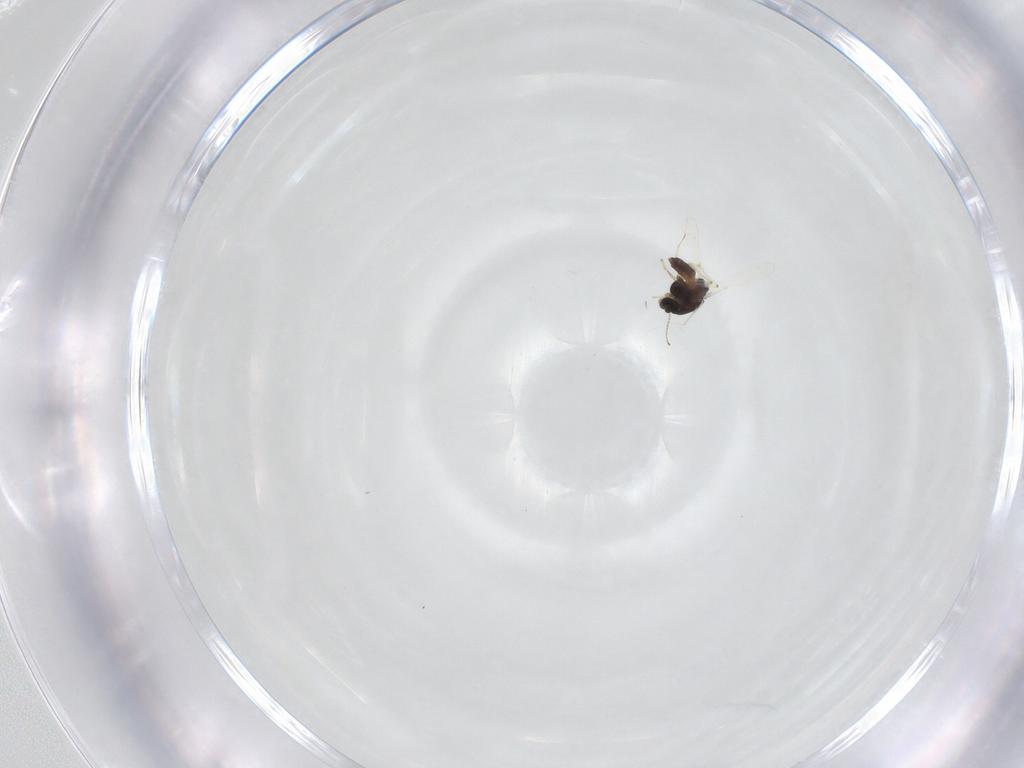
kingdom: Animalia
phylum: Arthropoda
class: Insecta
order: Diptera
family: Chironomidae
